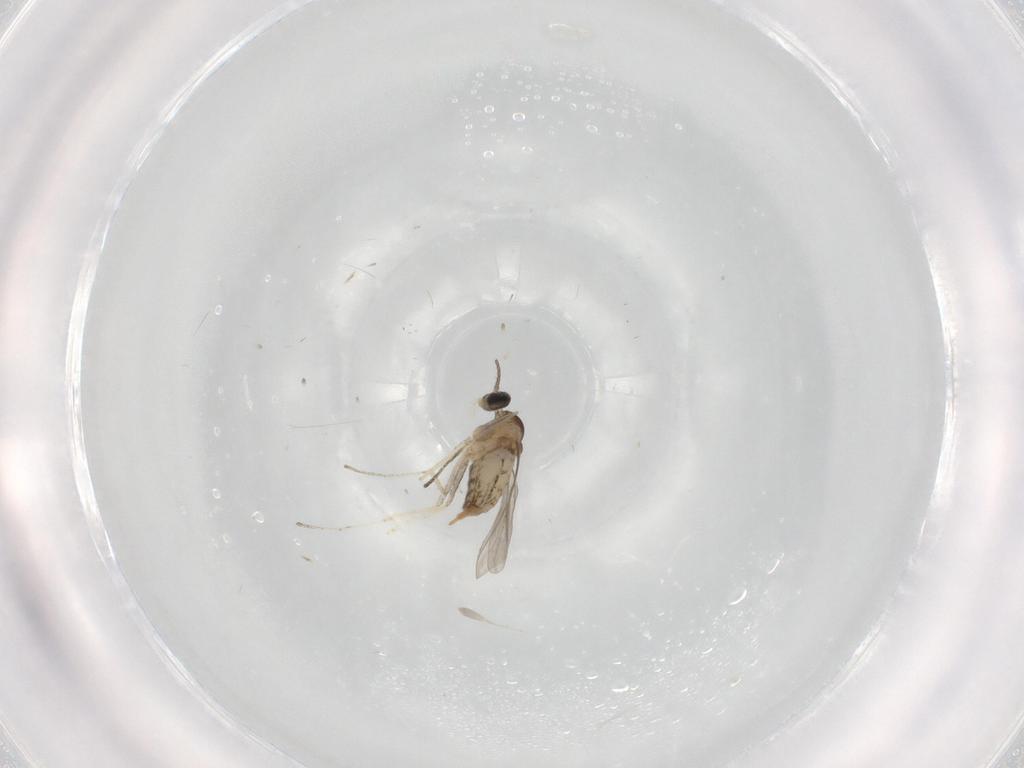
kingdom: Animalia
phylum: Arthropoda
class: Insecta
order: Diptera
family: Cecidomyiidae
